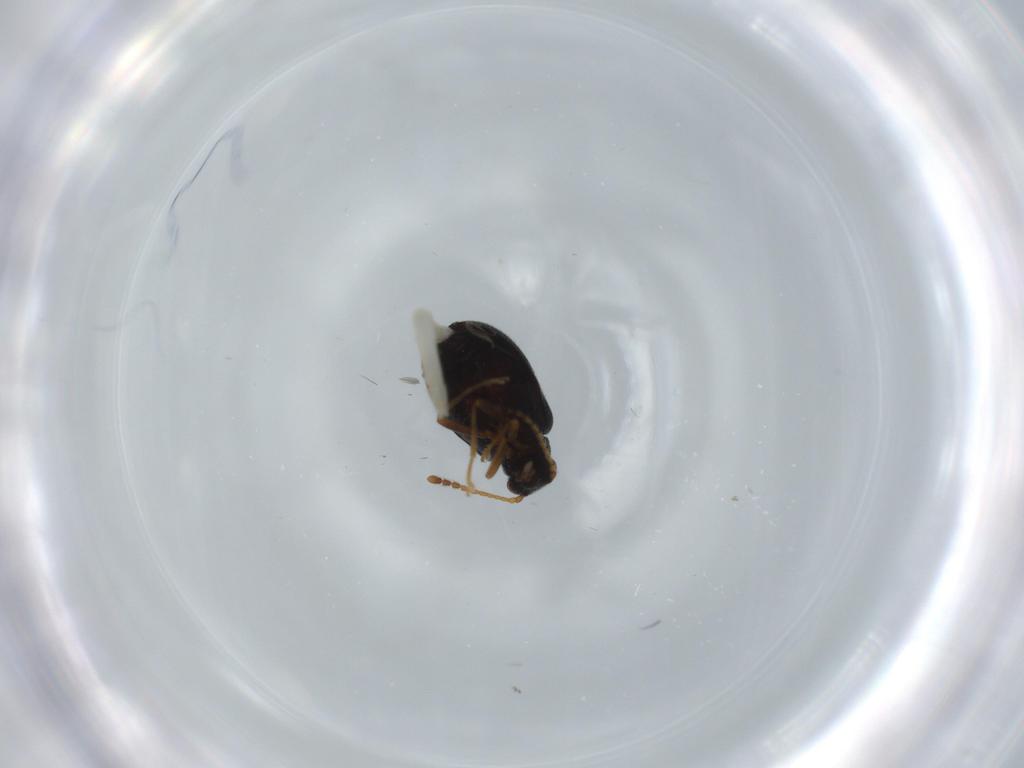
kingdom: Animalia
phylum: Arthropoda
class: Insecta
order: Coleoptera
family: Aderidae
